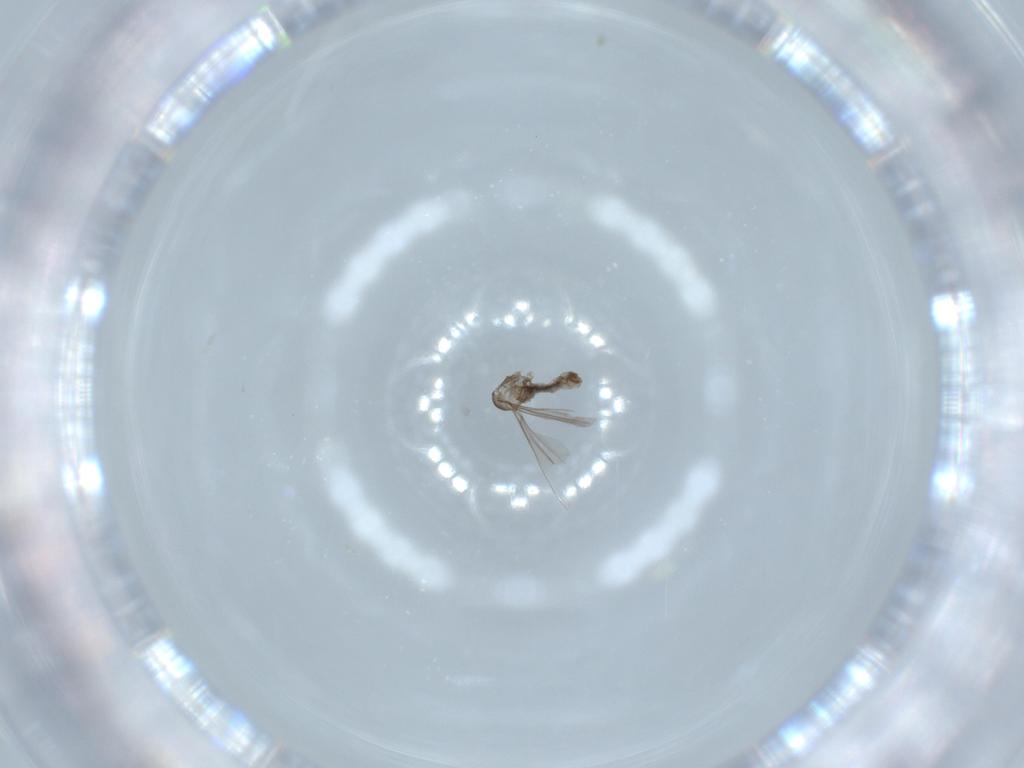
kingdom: Animalia
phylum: Arthropoda
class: Insecta
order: Diptera
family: Cecidomyiidae
